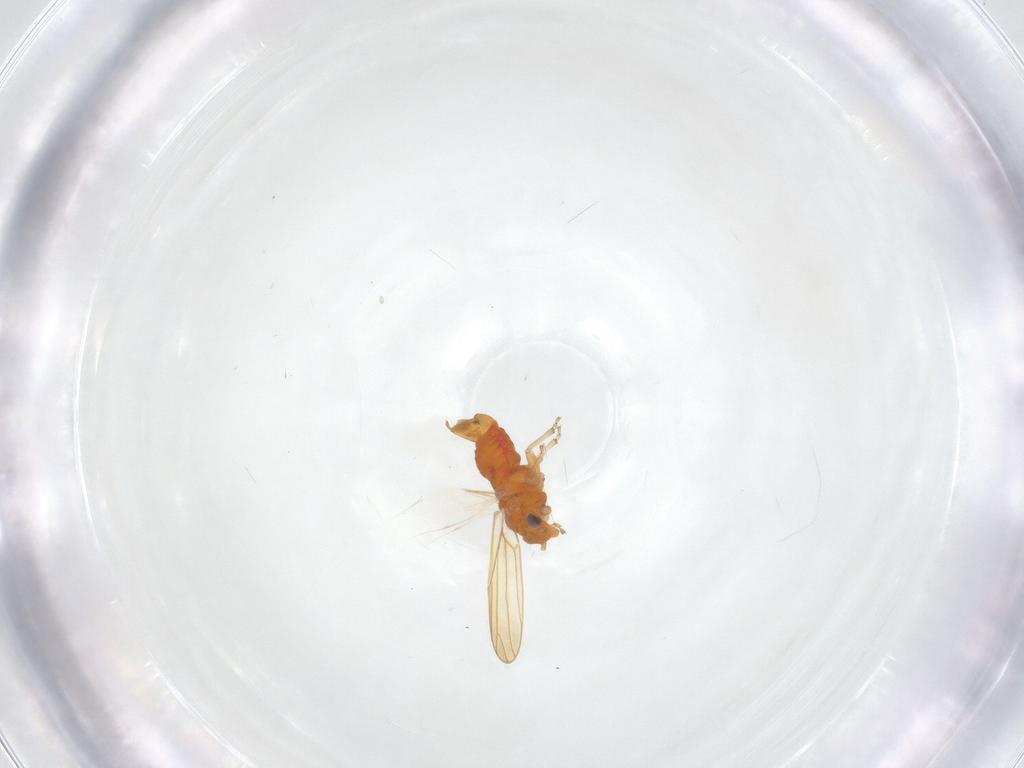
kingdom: Animalia
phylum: Arthropoda
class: Insecta
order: Hemiptera
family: Aphalaridae
